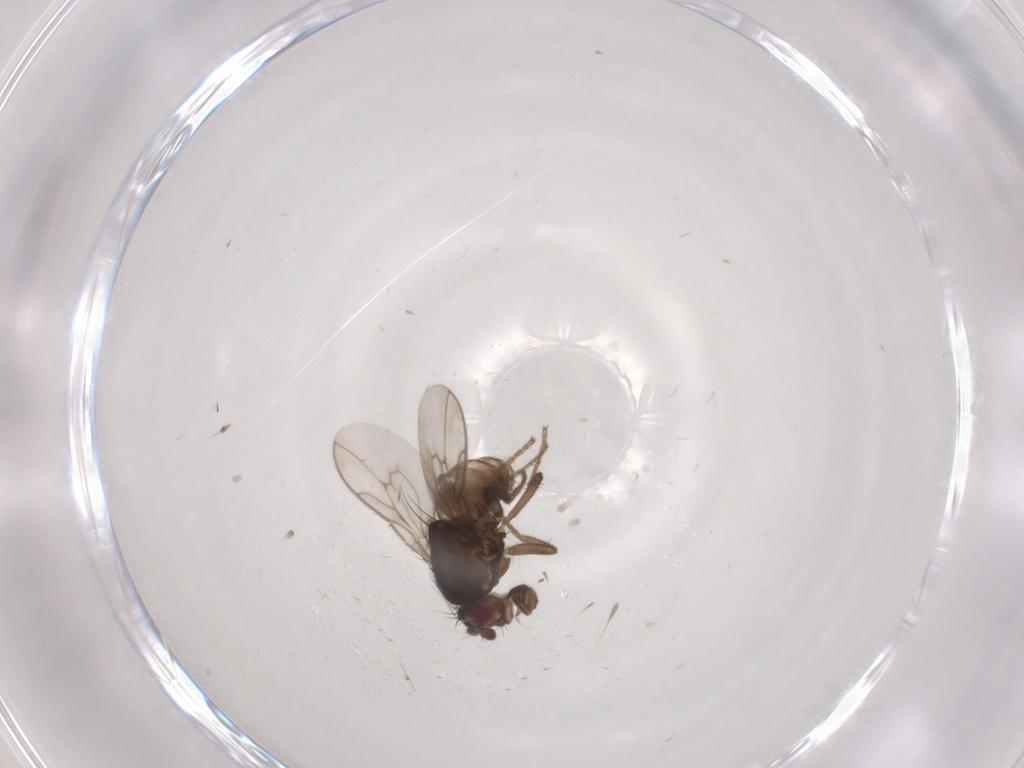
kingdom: Animalia
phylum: Arthropoda
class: Insecta
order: Diptera
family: Sphaeroceridae
